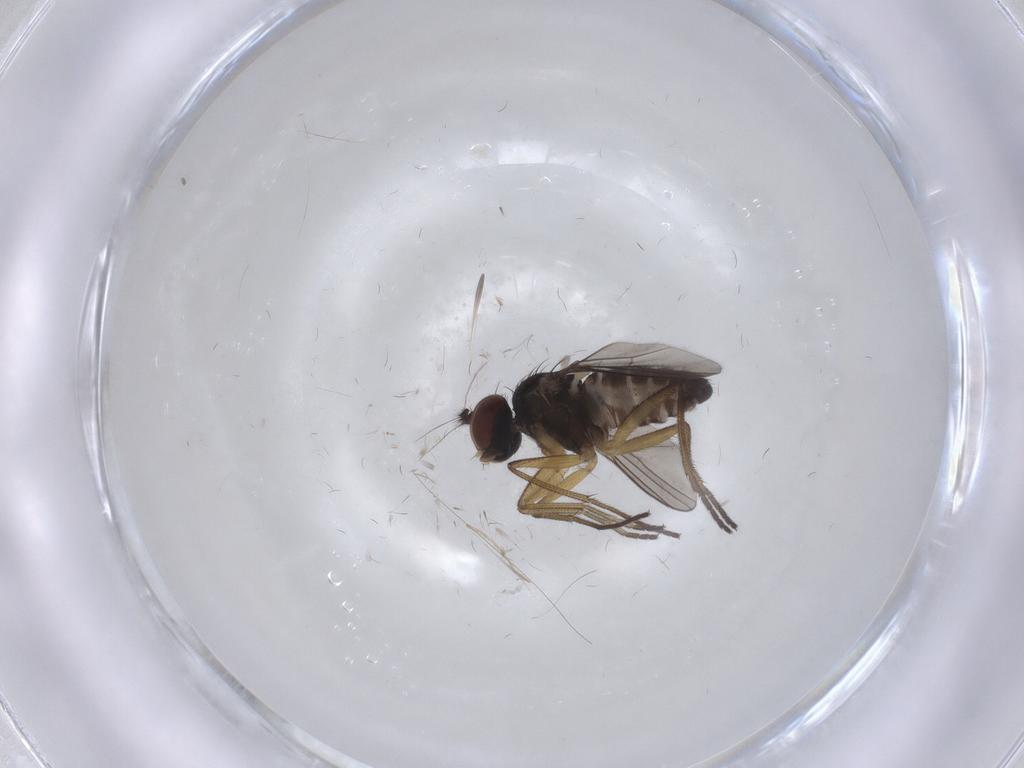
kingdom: Animalia
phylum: Arthropoda
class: Insecta
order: Diptera
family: Dolichopodidae
